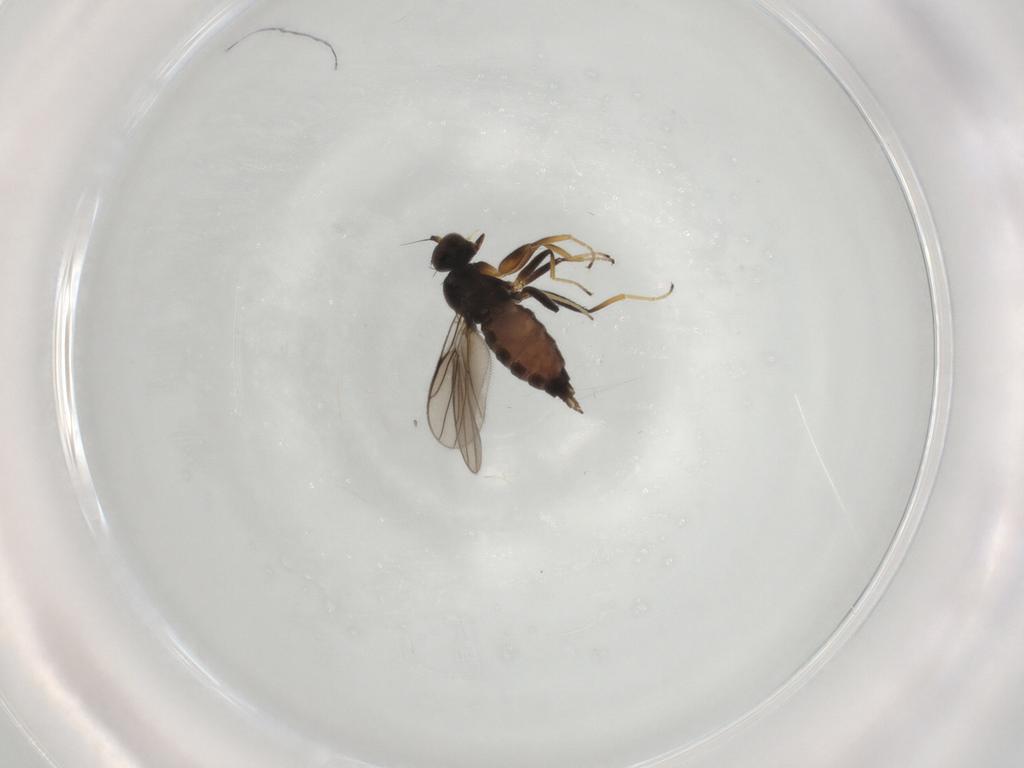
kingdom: Animalia
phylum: Arthropoda
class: Insecta
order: Diptera
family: Hybotidae
